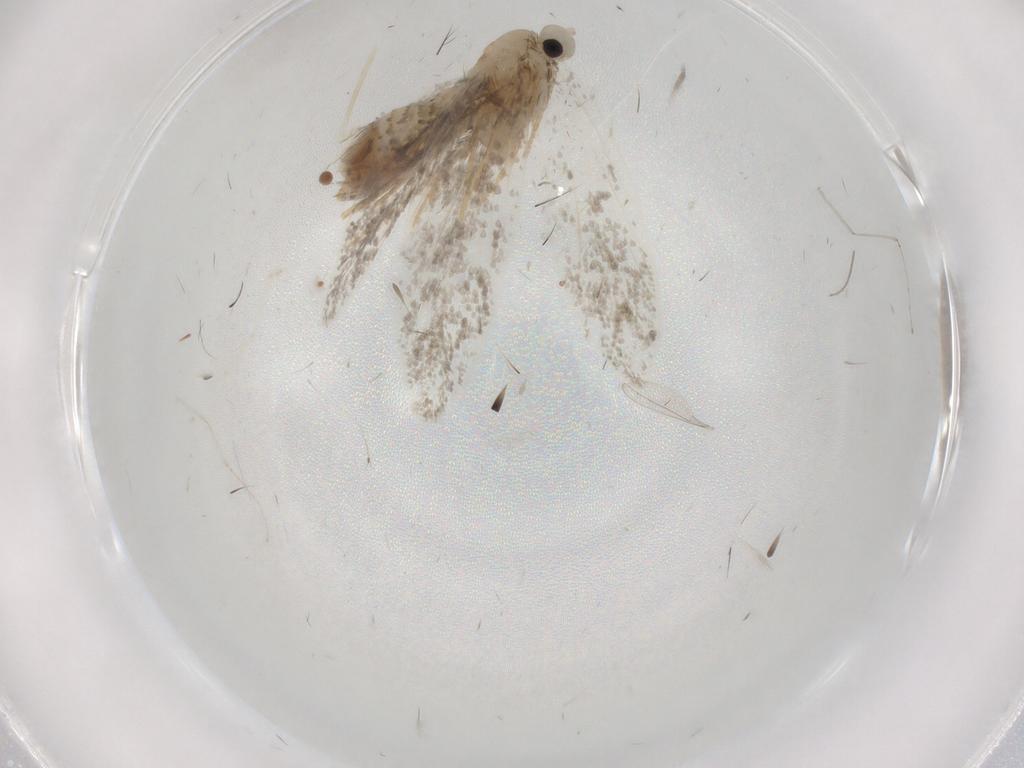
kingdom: Animalia
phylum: Arthropoda
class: Insecta
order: Lepidoptera
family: Psychidae
